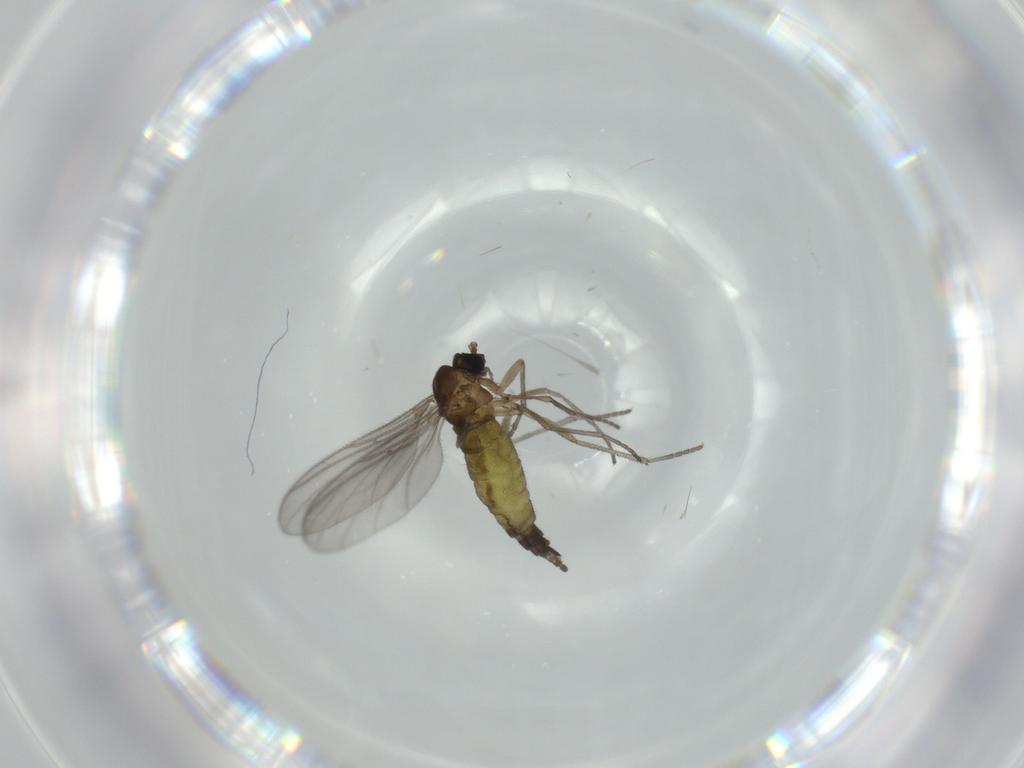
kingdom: Animalia
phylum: Arthropoda
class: Insecta
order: Diptera
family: Sciaridae
